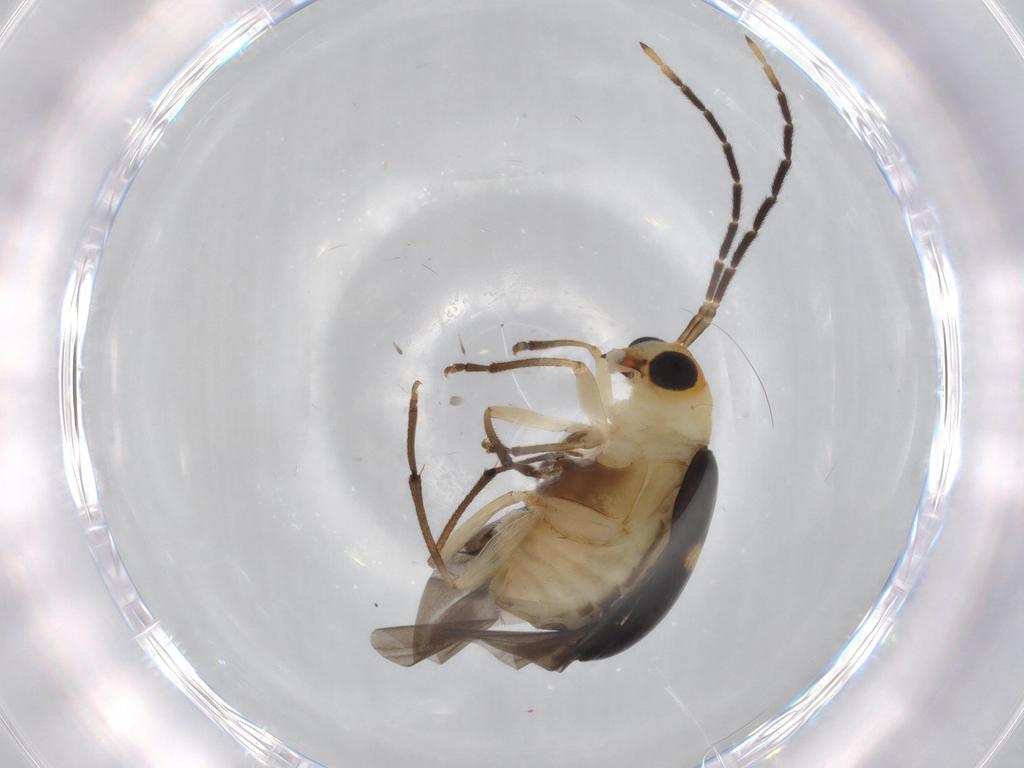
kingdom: Animalia
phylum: Arthropoda
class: Insecta
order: Coleoptera
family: Chrysomelidae
